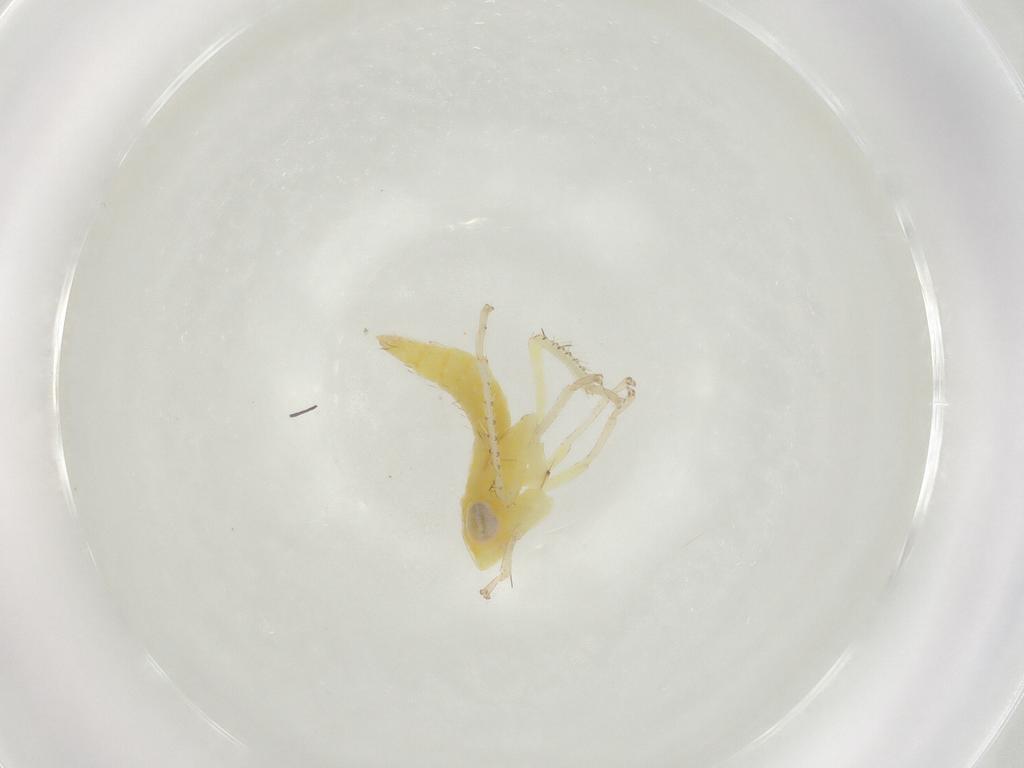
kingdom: Animalia
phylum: Arthropoda
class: Insecta
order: Hemiptera
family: Cicadellidae
